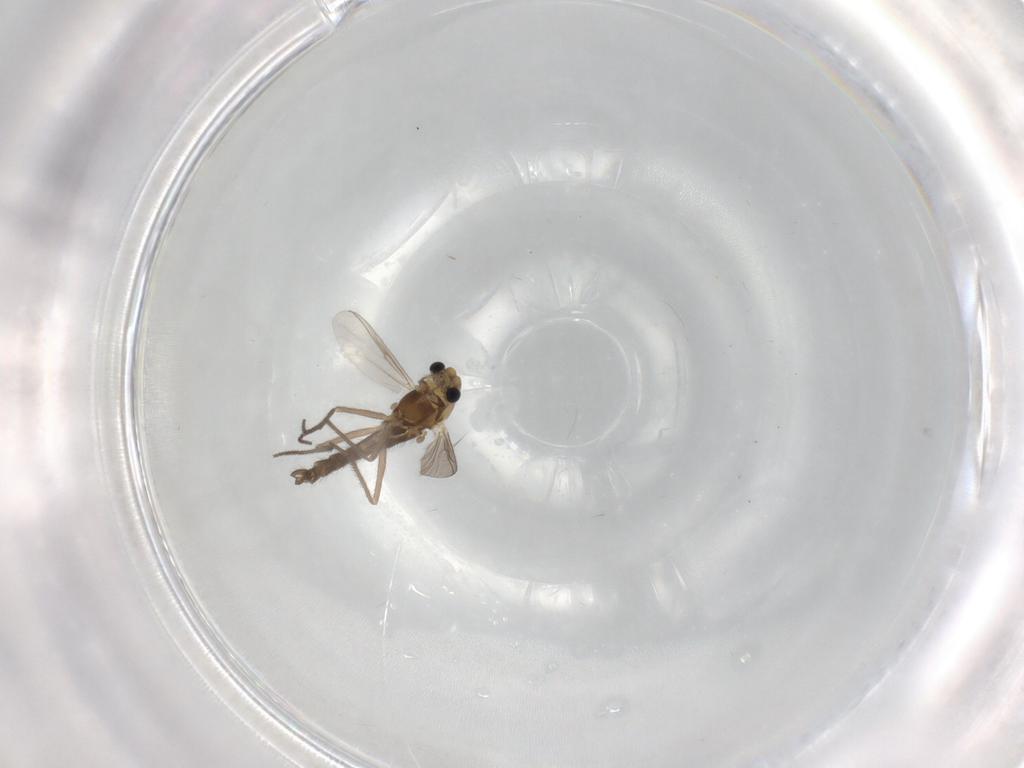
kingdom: Animalia
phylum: Arthropoda
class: Insecta
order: Diptera
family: Chironomidae
